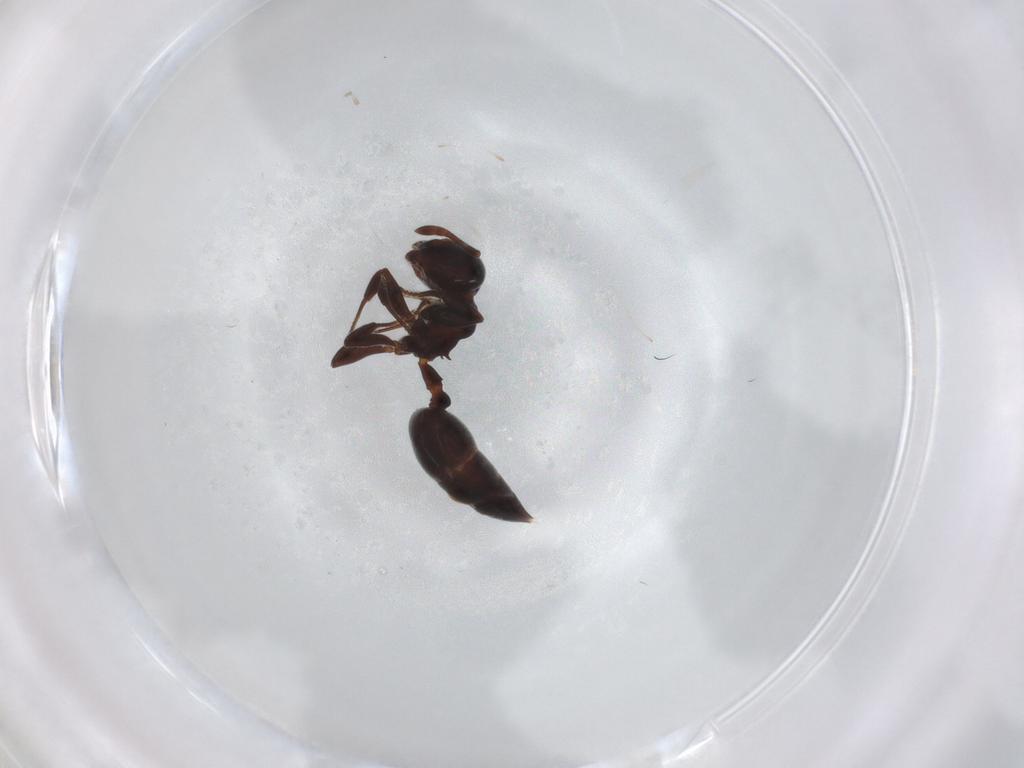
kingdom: Animalia
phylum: Arthropoda
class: Insecta
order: Hymenoptera
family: Formicidae
